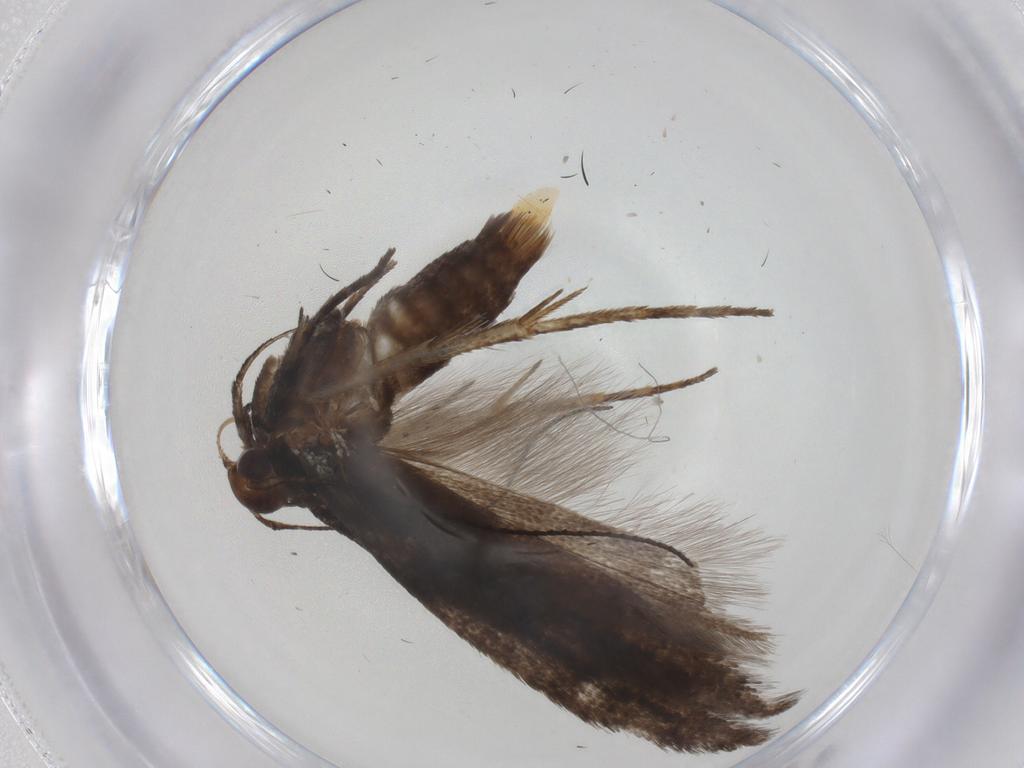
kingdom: Animalia
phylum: Arthropoda
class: Insecta
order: Lepidoptera
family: Gelechiidae
